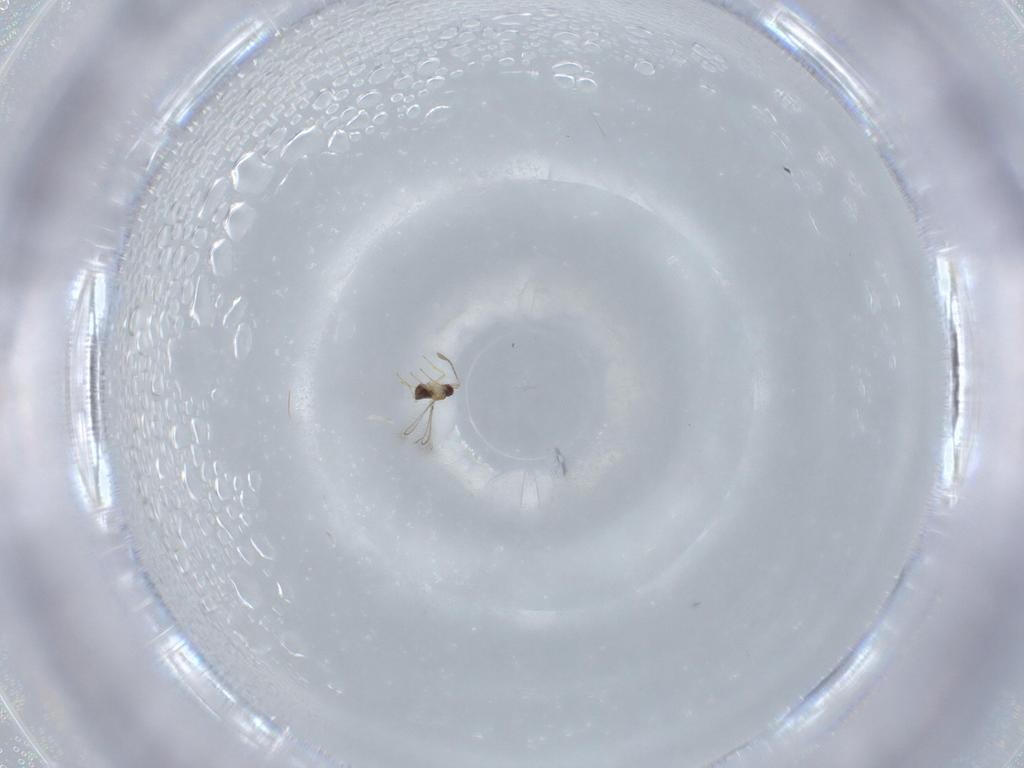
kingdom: Animalia
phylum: Arthropoda
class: Insecta
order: Hymenoptera
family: Mymaridae
